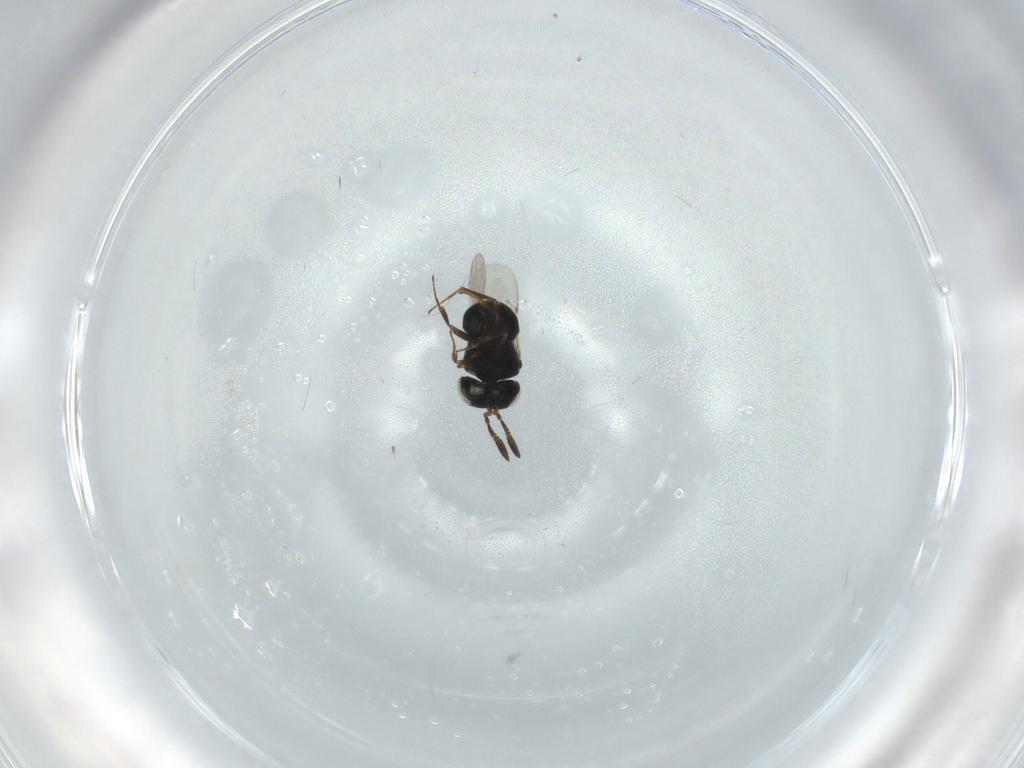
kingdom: Animalia
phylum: Arthropoda
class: Insecta
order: Hymenoptera
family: Scelionidae
